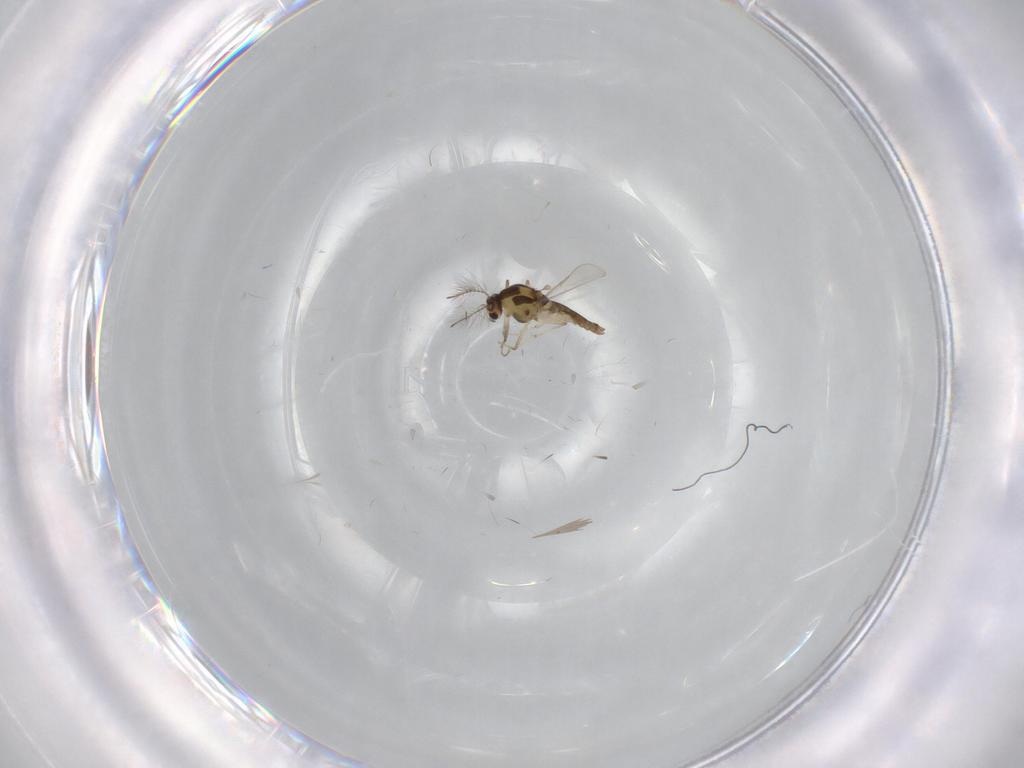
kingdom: Animalia
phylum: Arthropoda
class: Insecta
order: Diptera
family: Chironomidae
